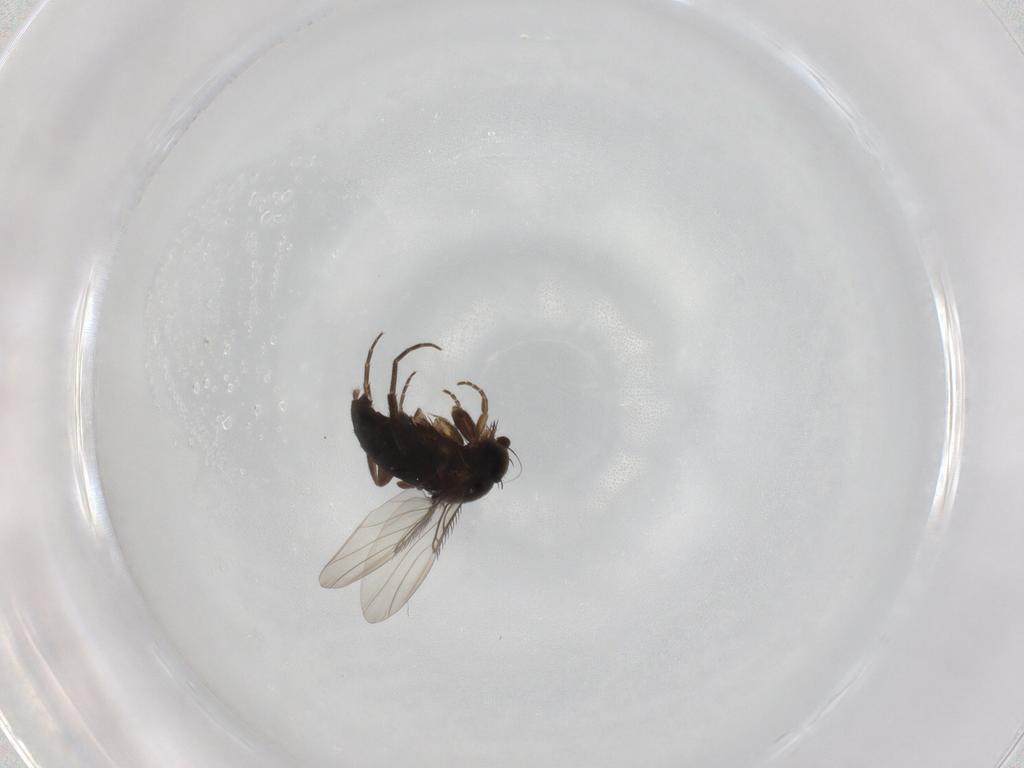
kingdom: Animalia
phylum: Arthropoda
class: Insecta
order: Diptera
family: Phoridae
